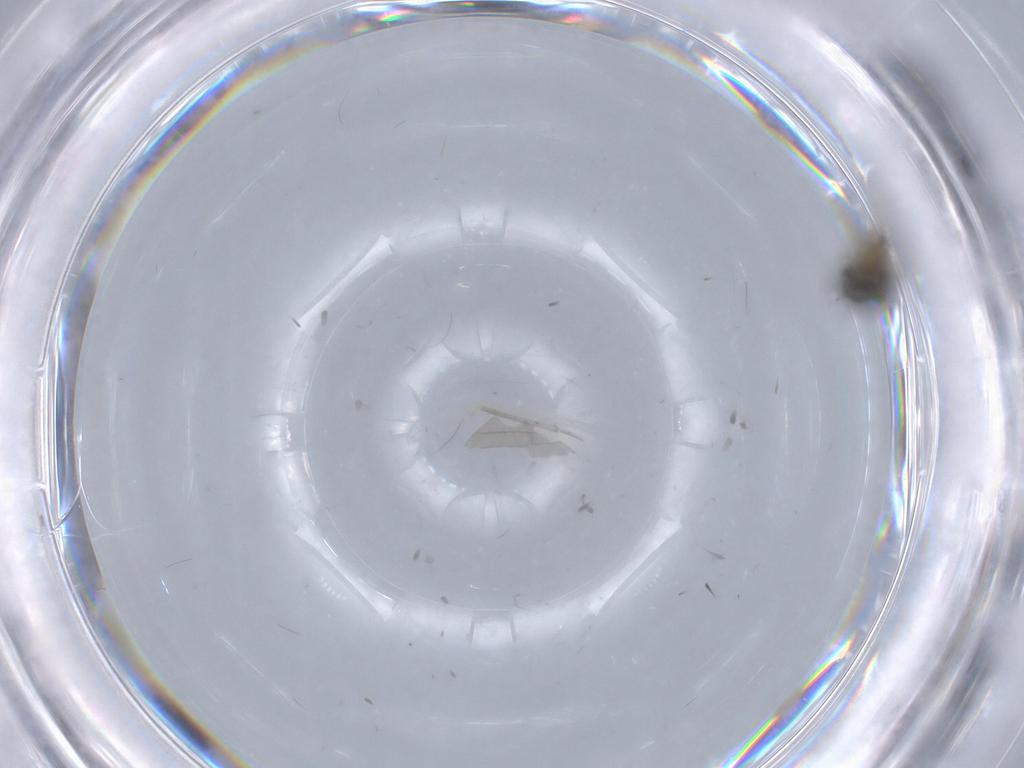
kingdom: Animalia
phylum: Arthropoda
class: Insecta
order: Diptera
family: Ceratopogonidae
